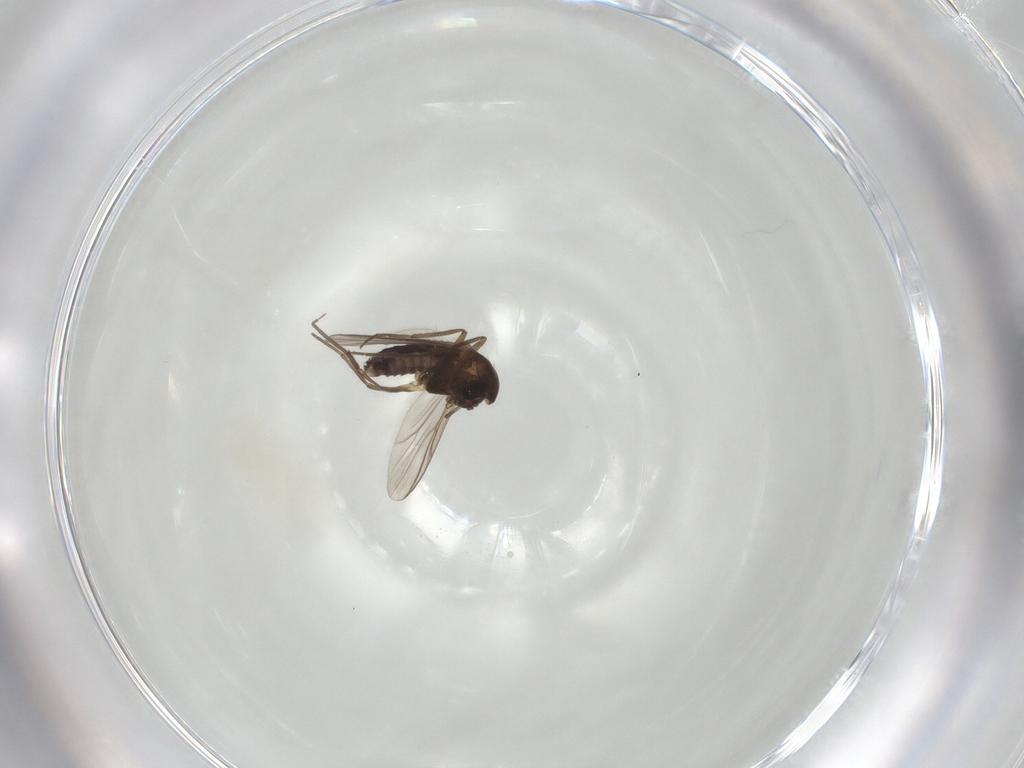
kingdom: Animalia
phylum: Arthropoda
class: Insecta
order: Diptera
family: Chironomidae
